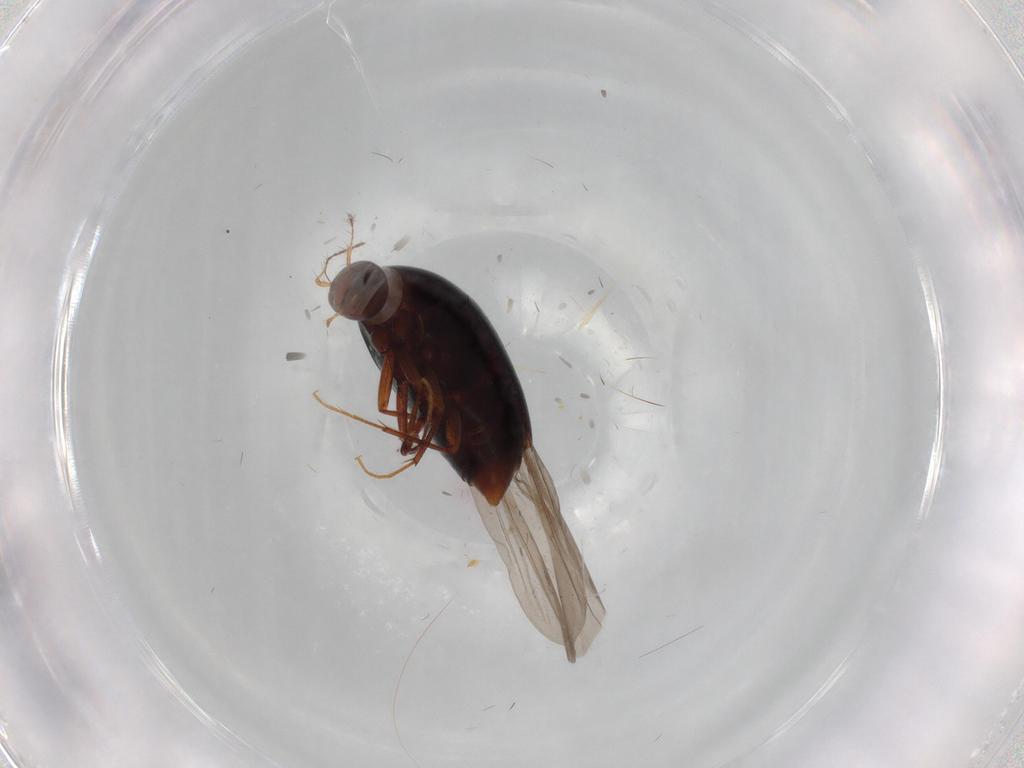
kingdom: Animalia
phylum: Arthropoda
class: Insecta
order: Coleoptera
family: Staphylinidae
